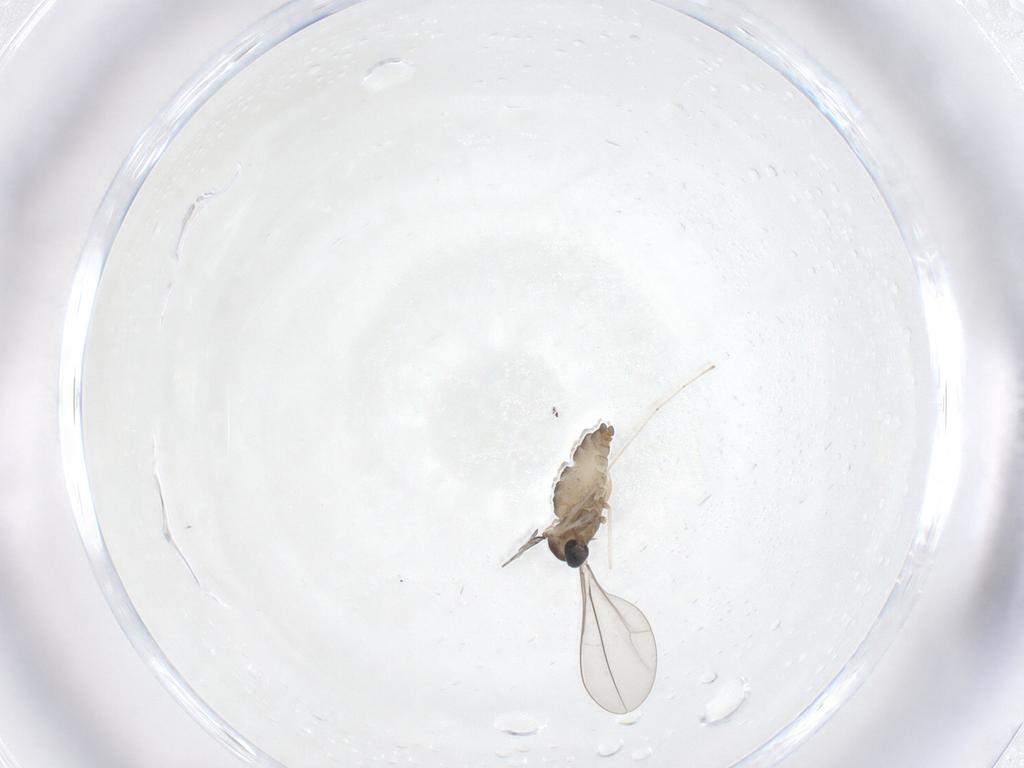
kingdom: Animalia
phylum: Arthropoda
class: Insecta
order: Diptera
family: Cecidomyiidae
